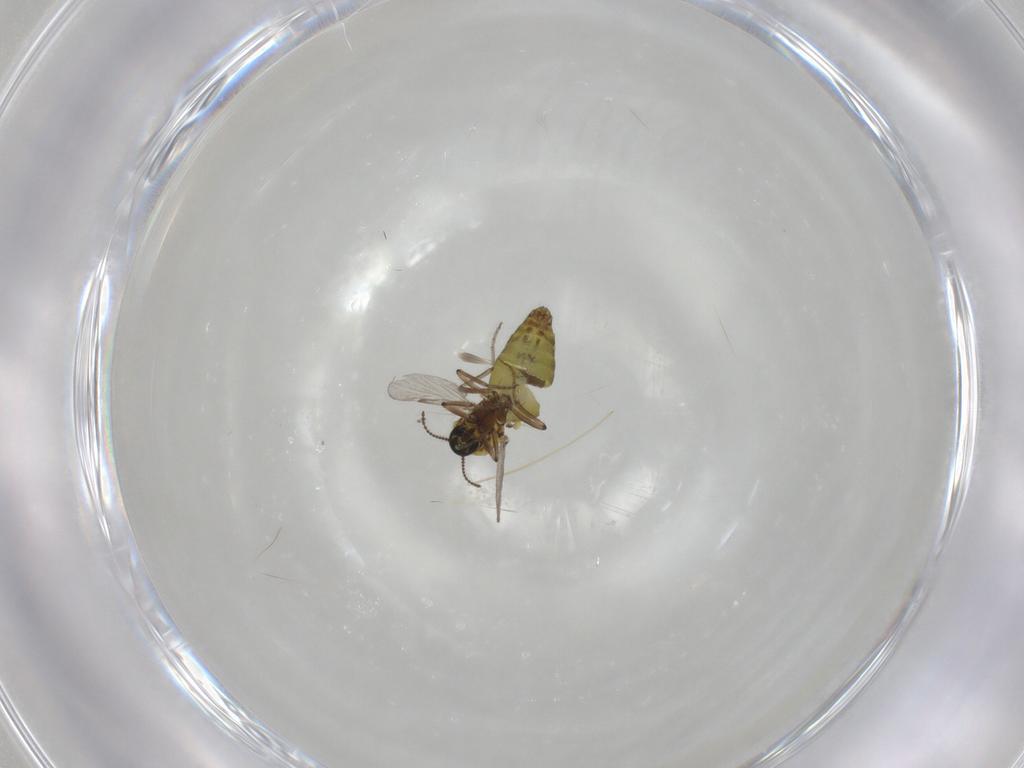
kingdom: Animalia
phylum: Arthropoda
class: Insecta
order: Diptera
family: Ceratopogonidae
